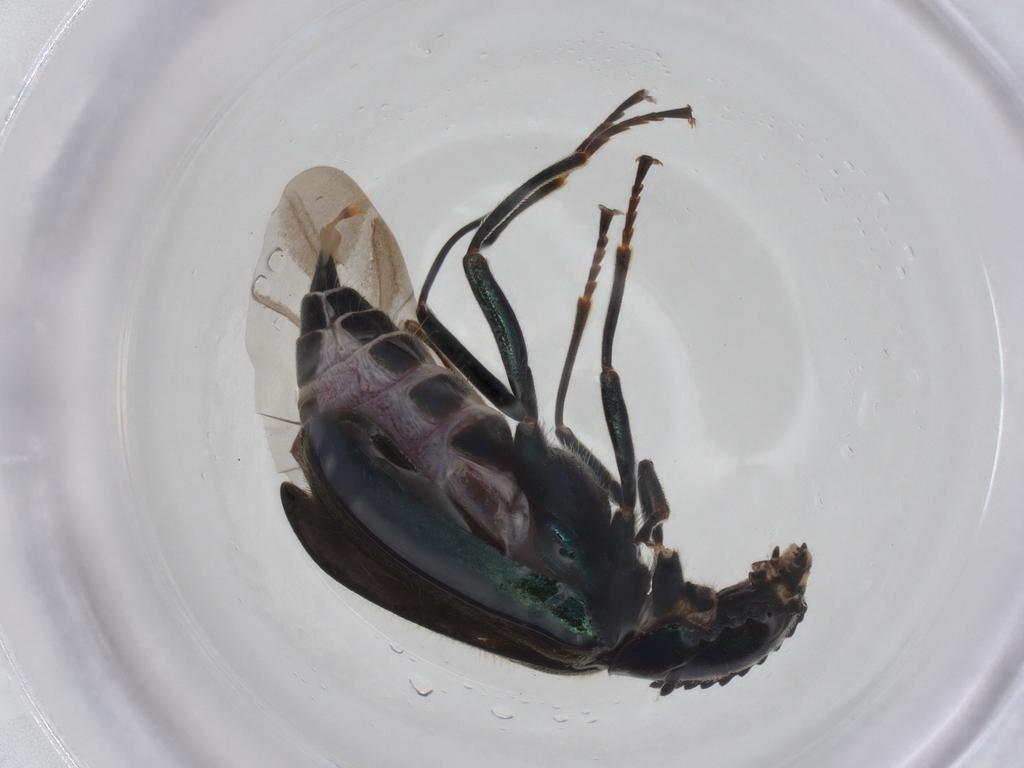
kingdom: Animalia
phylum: Arthropoda
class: Insecta
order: Coleoptera
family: Melyridae
